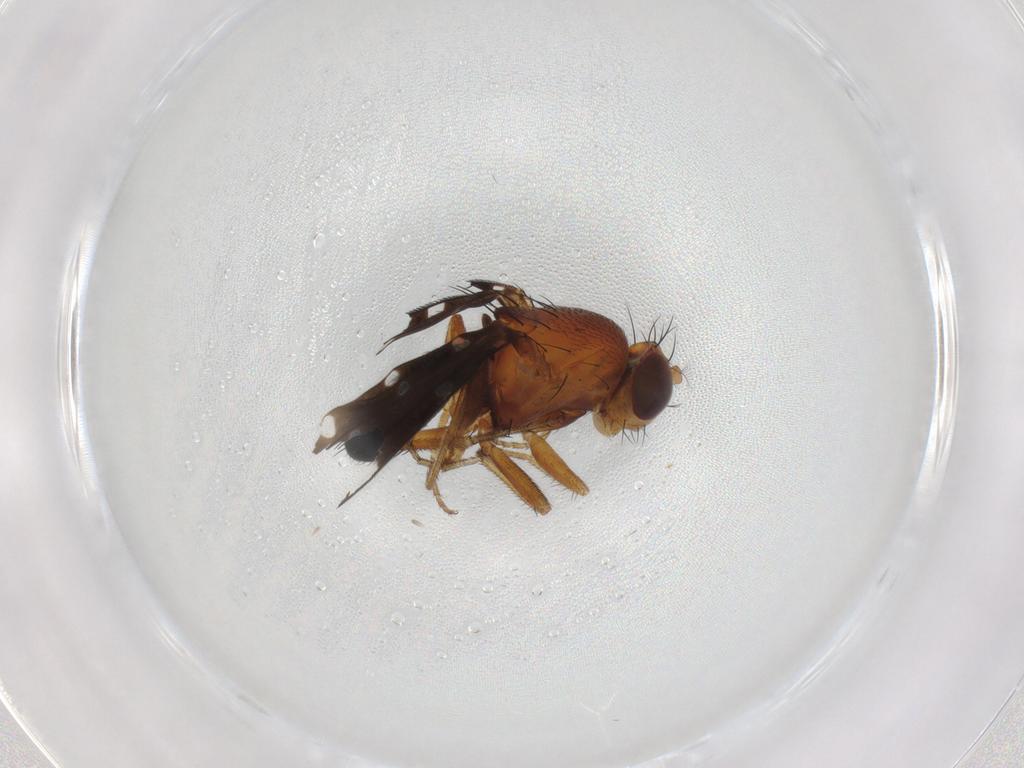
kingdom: Animalia
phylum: Arthropoda
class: Insecta
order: Diptera
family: Ephydridae
